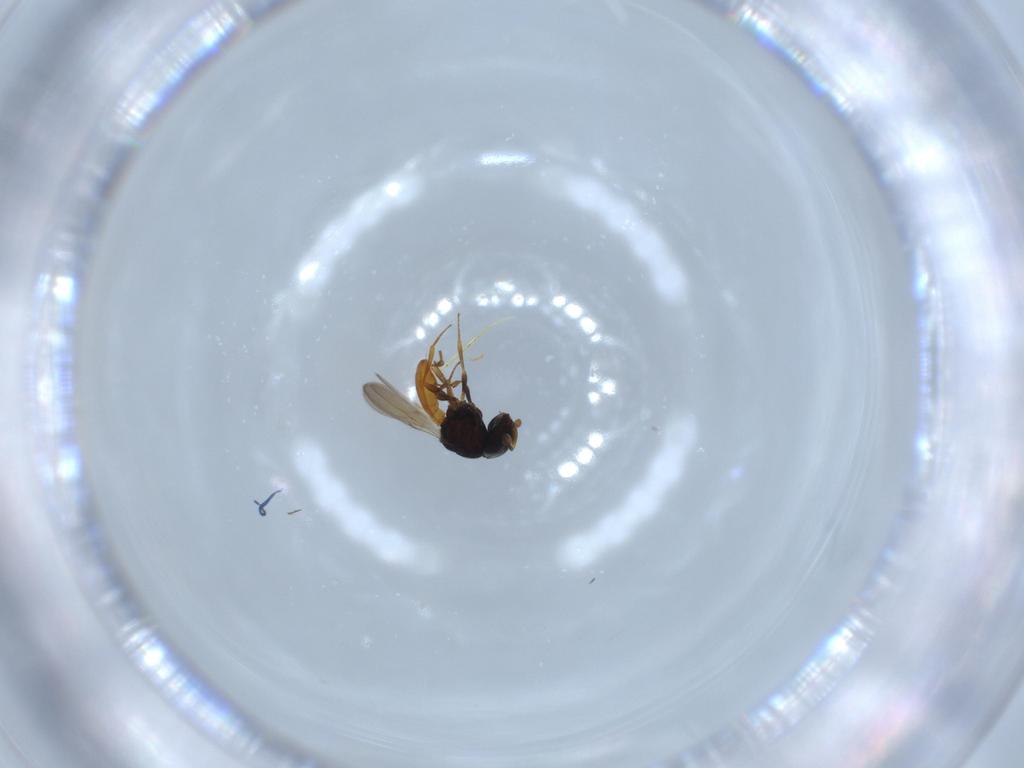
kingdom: Animalia
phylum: Arthropoda
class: Insecta
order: Hymenoptera
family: Scelionidae
